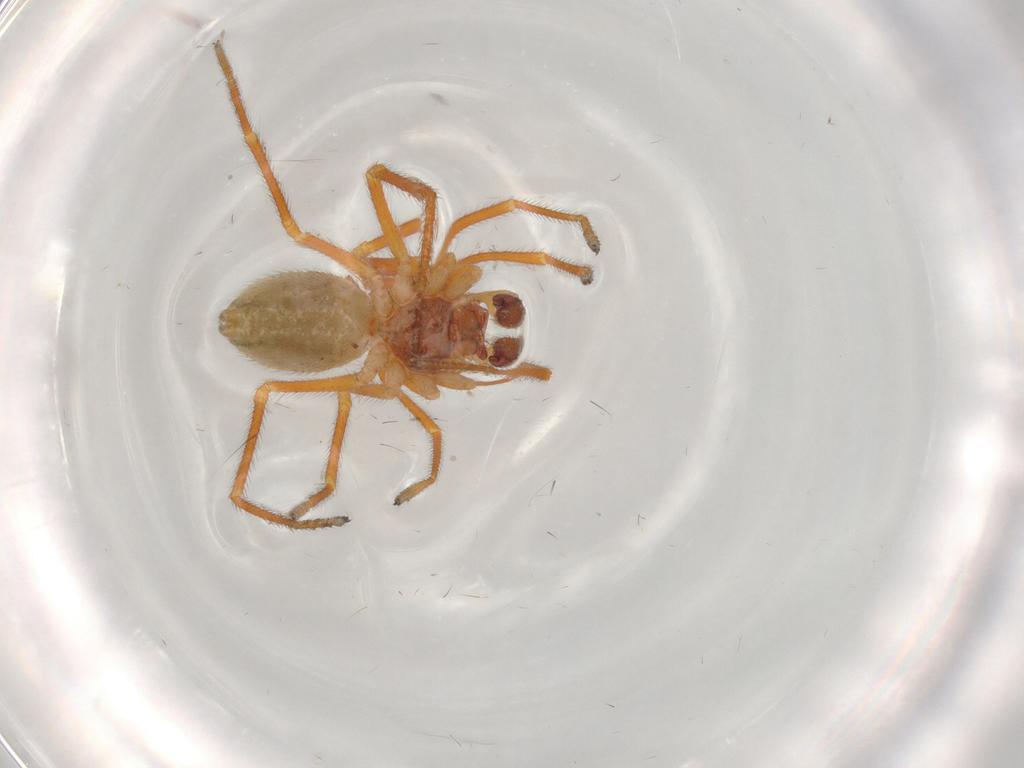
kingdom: Animalia
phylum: Arthropoda
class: Arachnida
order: Araneae
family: Linyphiidae
